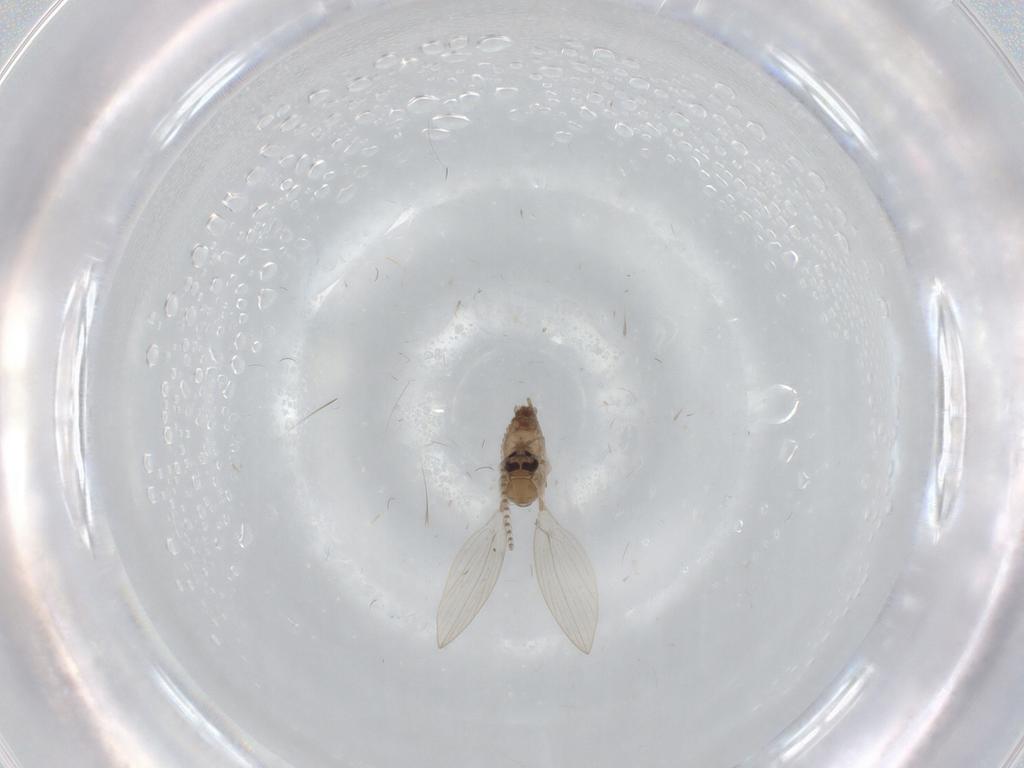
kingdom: Animalia
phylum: Arthropoda
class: Insecta
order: Diptera
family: Psychodidae
